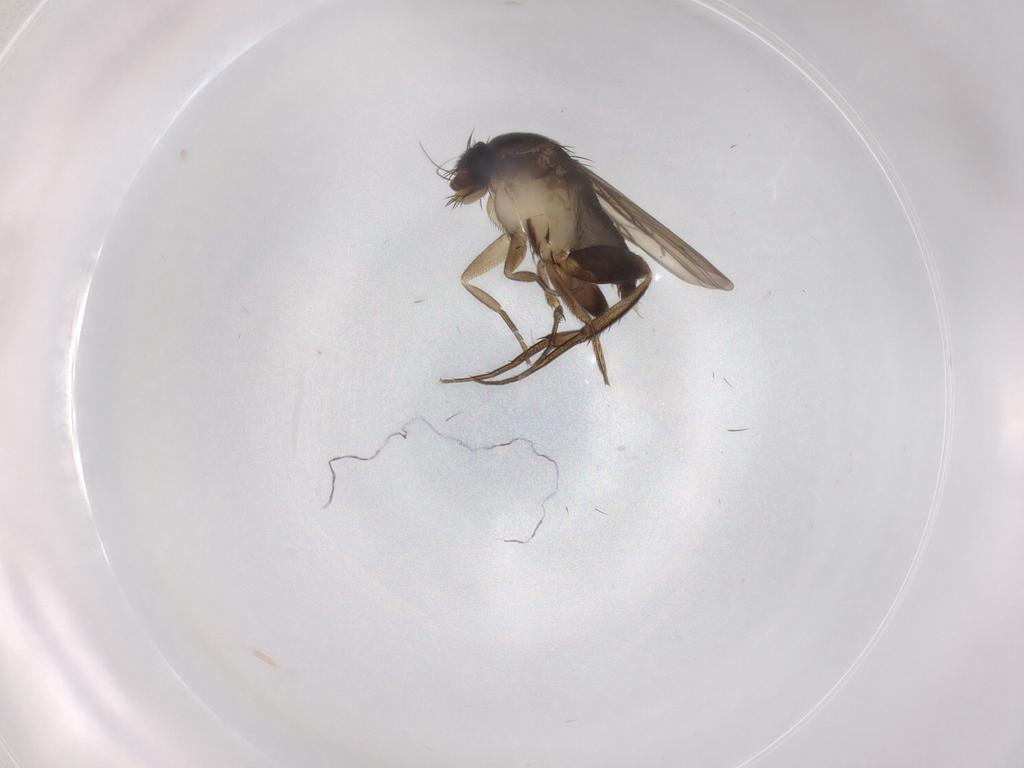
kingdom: Animalia
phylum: Arthropoda
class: Insecta
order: Diptera
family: Phoridae
